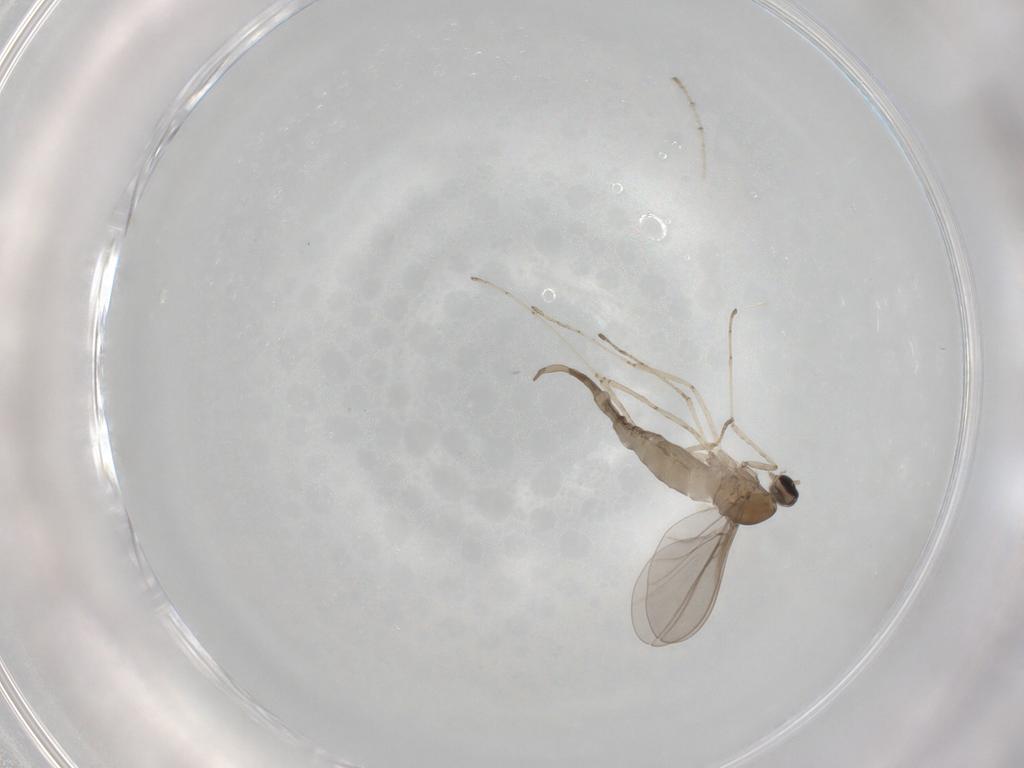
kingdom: Animalia
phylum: Arthropoda
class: Insecta
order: Diptera
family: Cecidomyiidae
